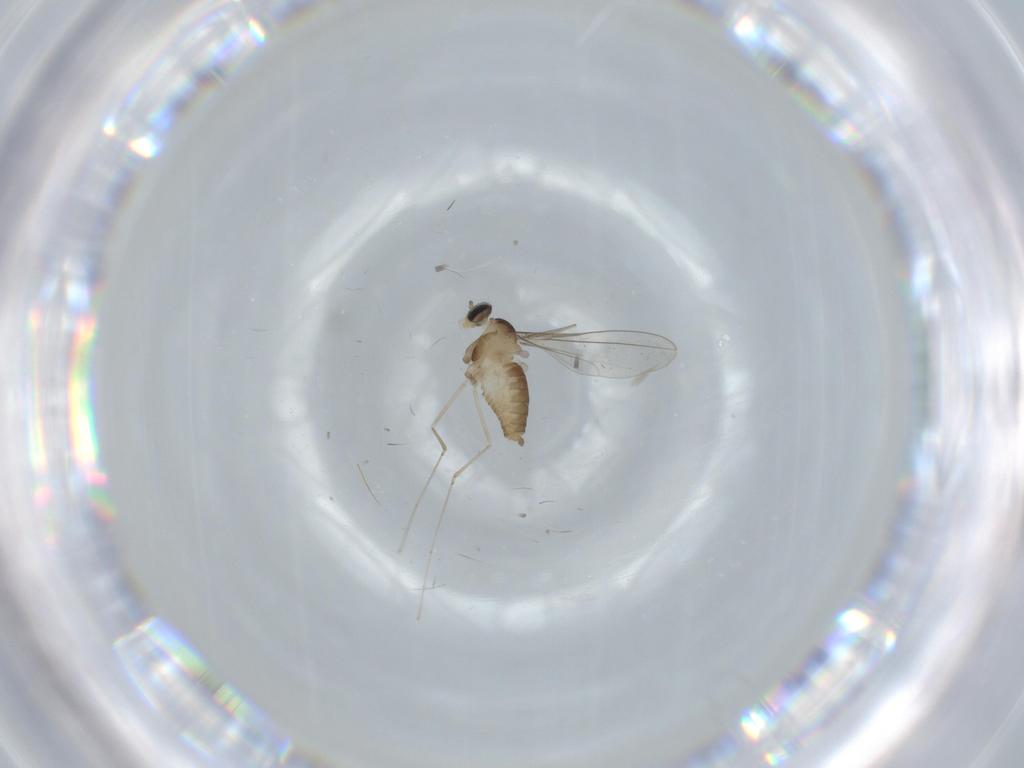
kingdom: Animalia
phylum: Arthropoda
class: Insecta
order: Diptera
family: Cecidomyiidae
